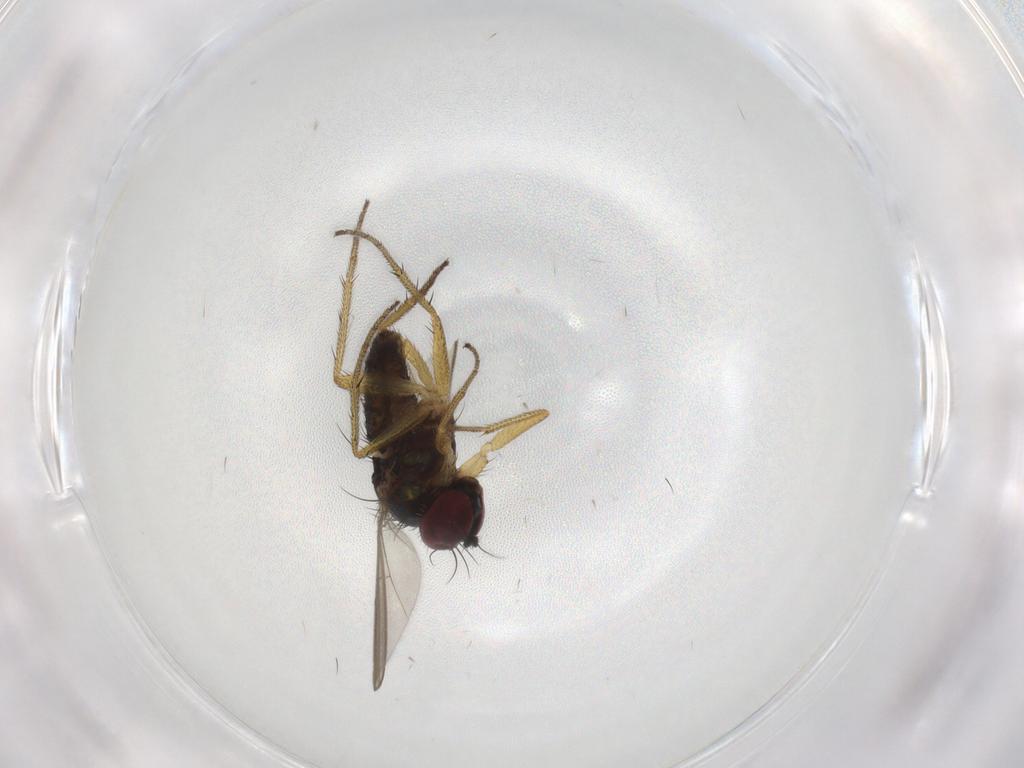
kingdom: Animalia
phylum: Arthropoda
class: Insecta
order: Diptera
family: Dolichopodidae
